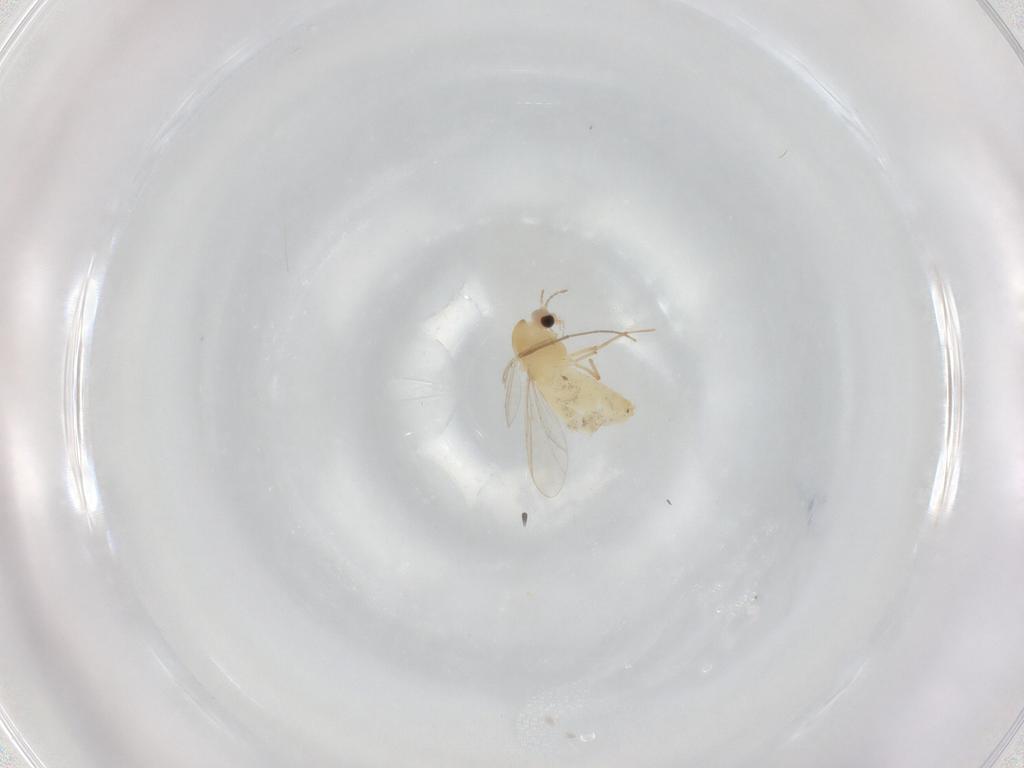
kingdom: Animalia
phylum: Arthropoda
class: Insecta
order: Diptera
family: Chironomidae
